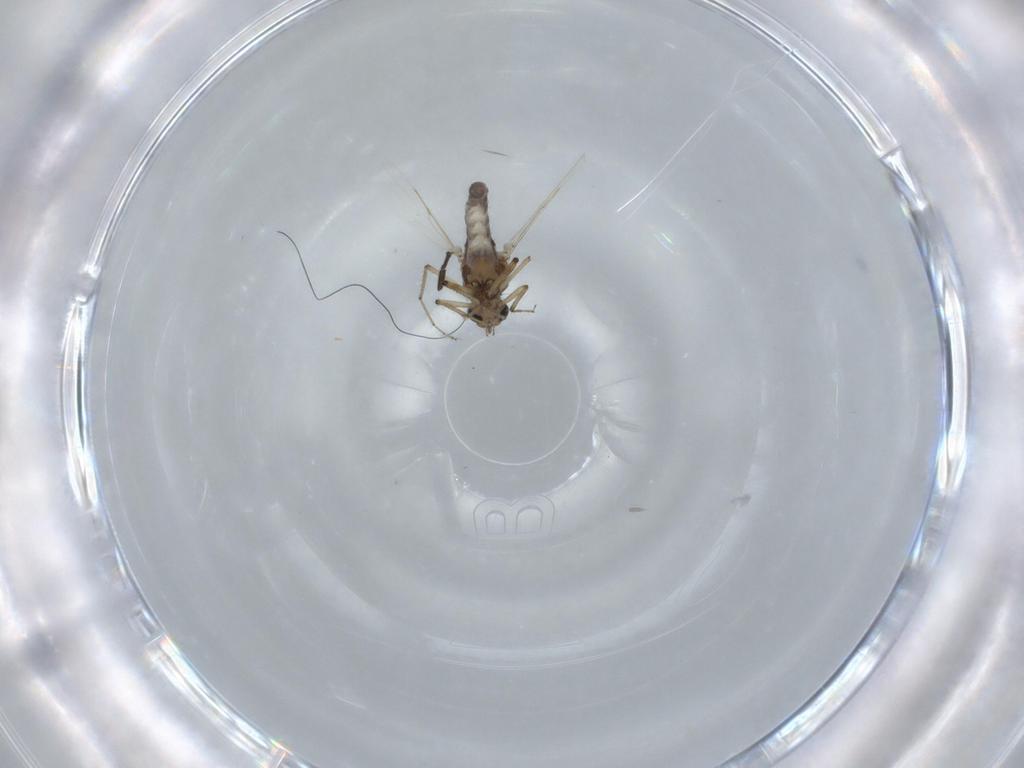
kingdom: Animalia
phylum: Arthropoda
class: Insecta
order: Diptera
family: Ceratopogonidae
